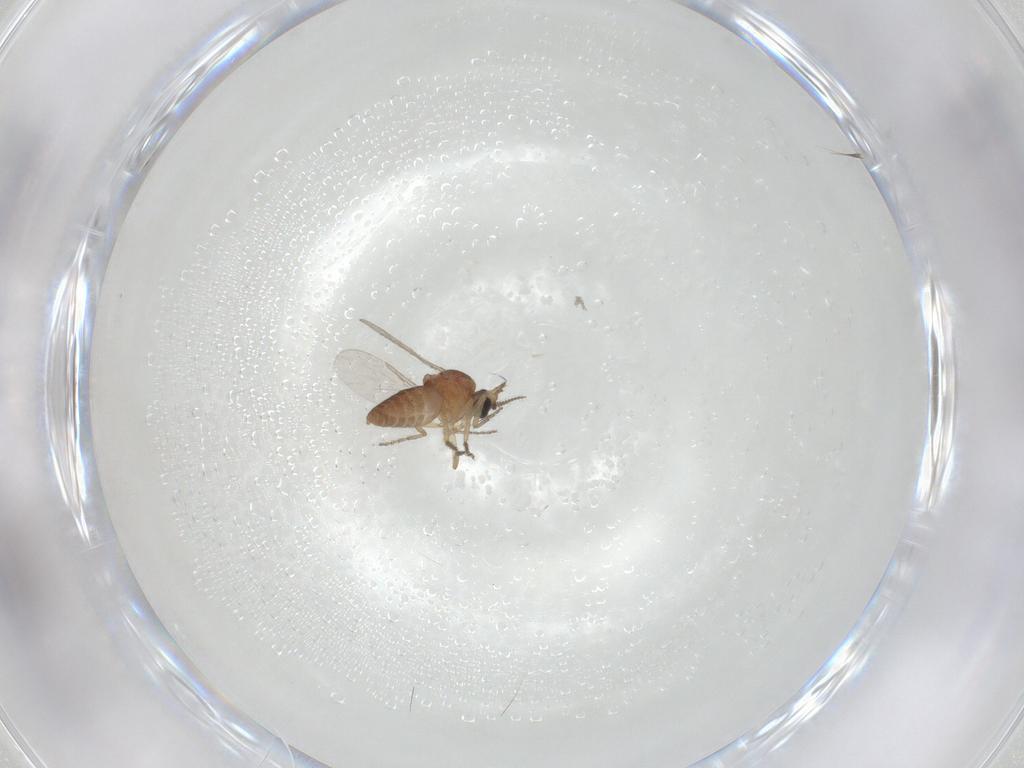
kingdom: Animalia
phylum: Arthropoda
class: Insecta
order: Diptera
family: Ceratopogonidae
